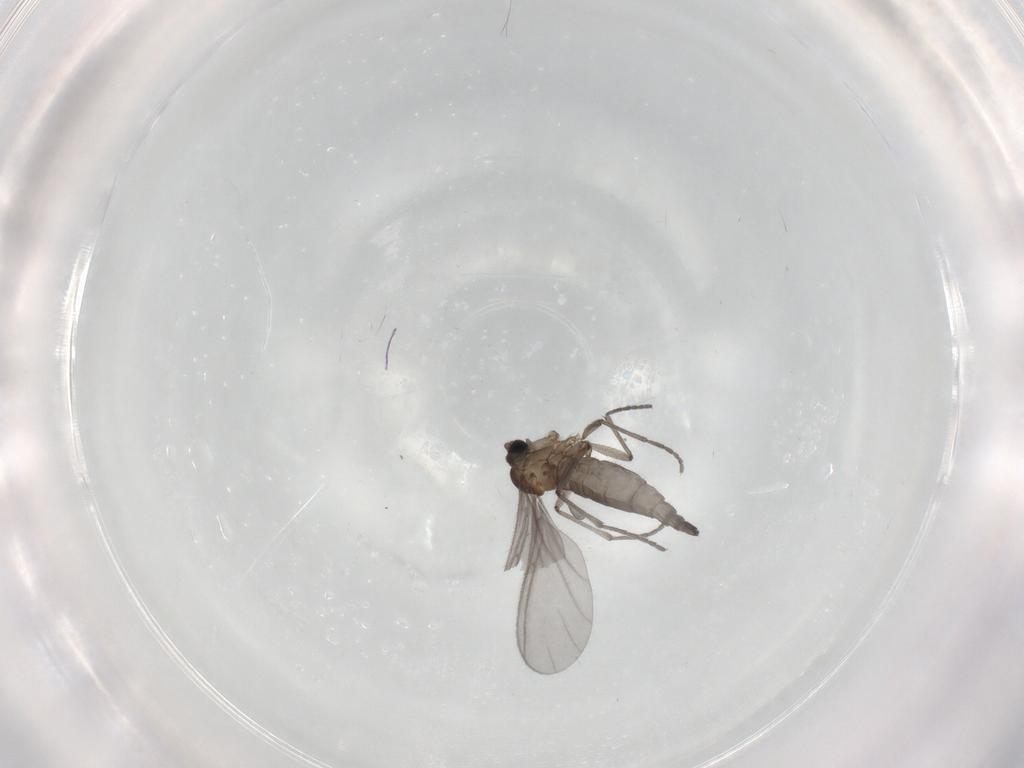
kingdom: Animalia
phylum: Arthropoda
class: Insecta
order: Diptera
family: Sciaridae
